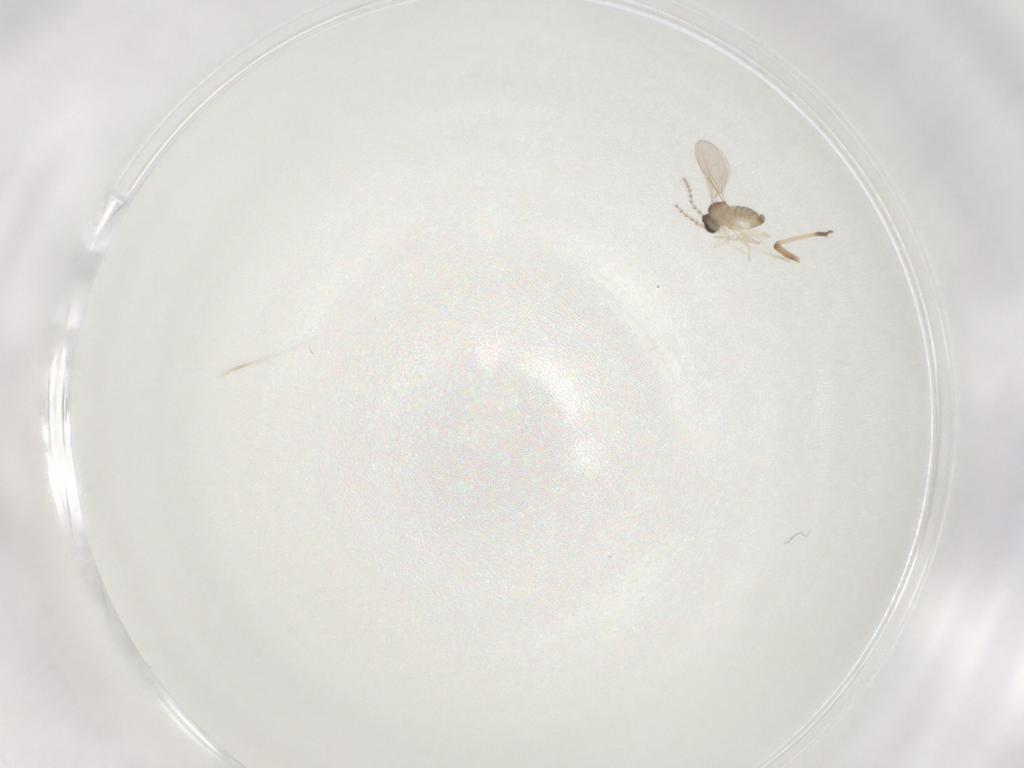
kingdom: Animalia
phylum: Arthropoda
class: Insecta
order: Diptera
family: Cecidomyiidae
